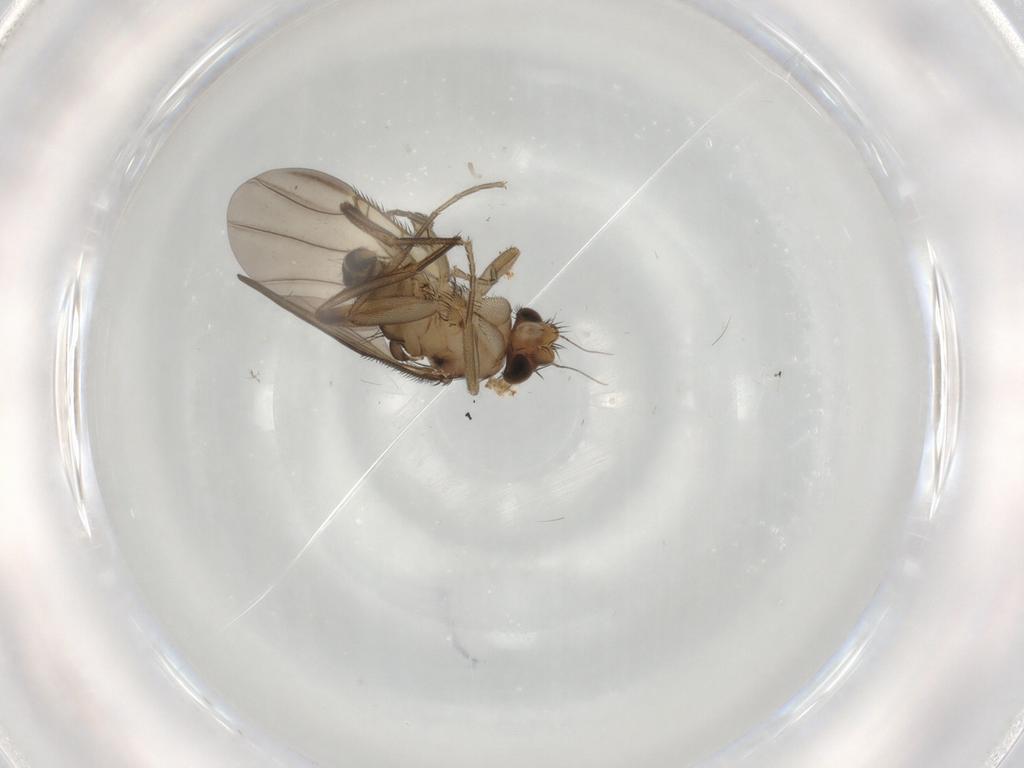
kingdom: Animalia
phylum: Arthropoda
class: Insecta
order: Diptera
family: Phoridae
